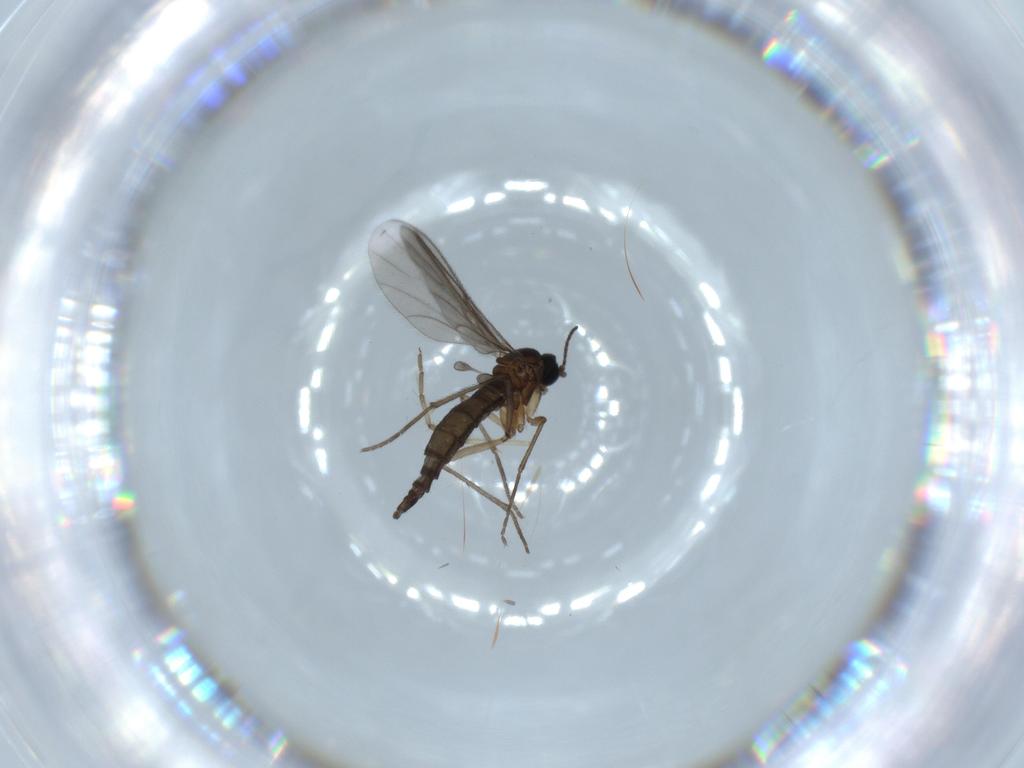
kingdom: Animalia
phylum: Arthropoda
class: Insecta
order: Diptera
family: Sciaridae
